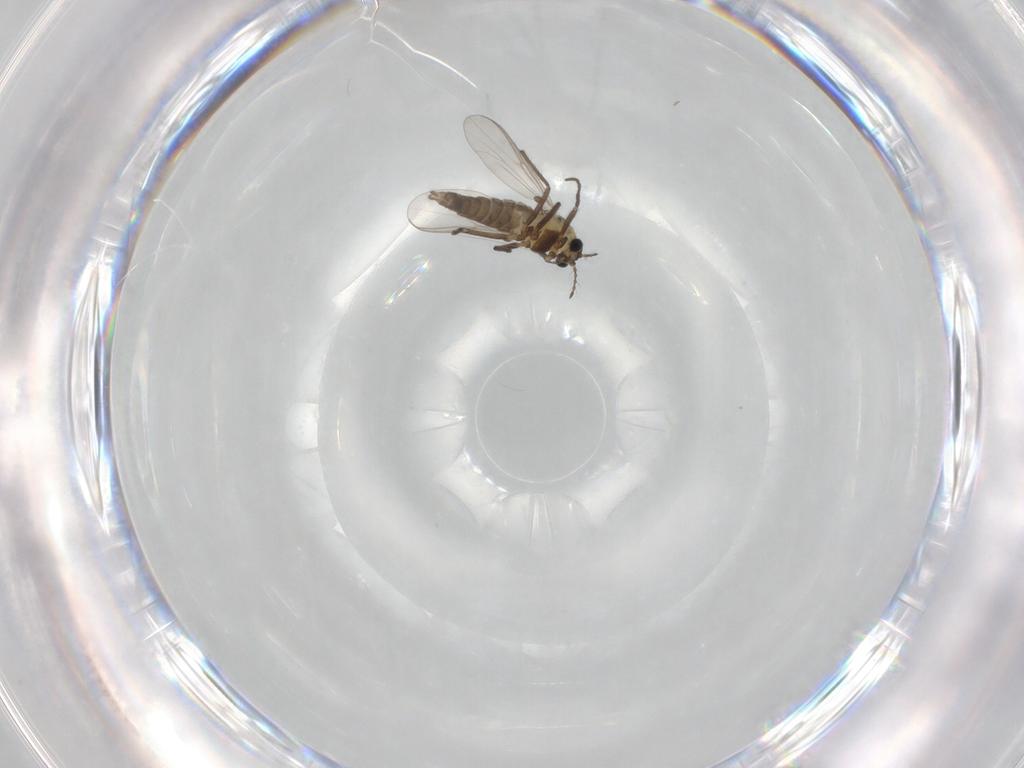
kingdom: Animalia
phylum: Arthropoda
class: Insecta
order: Diptera
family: Chironomidae
